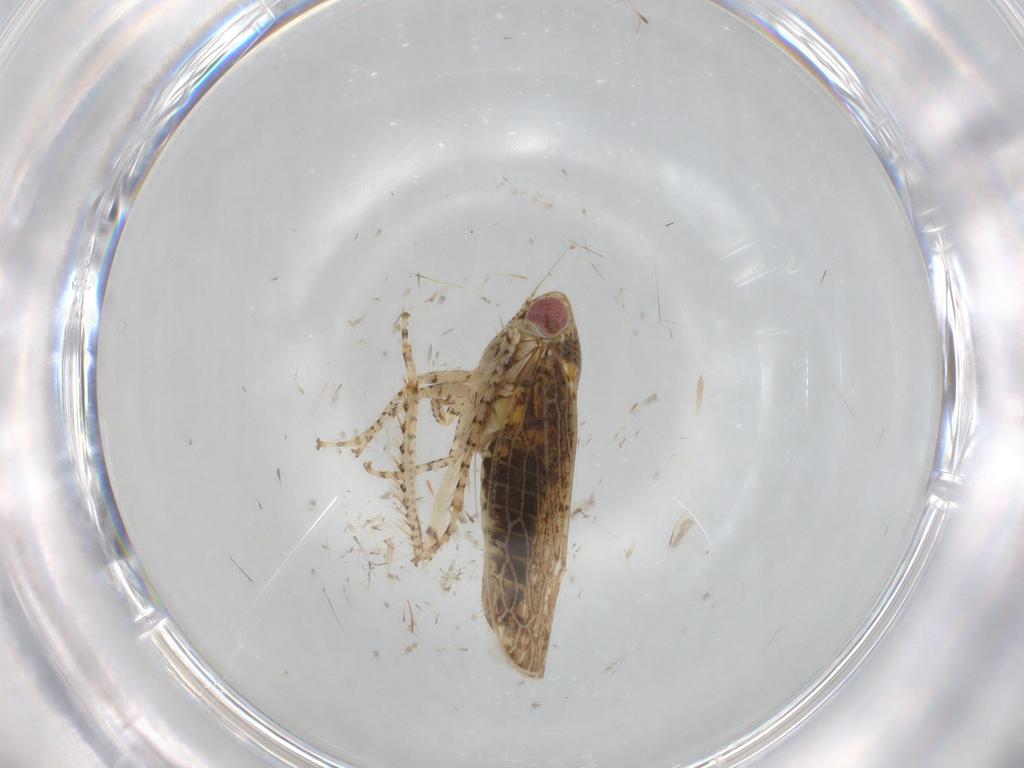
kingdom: Animalia
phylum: Arthropoda
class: Insecta
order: Hemiptera
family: Cicadellidae
